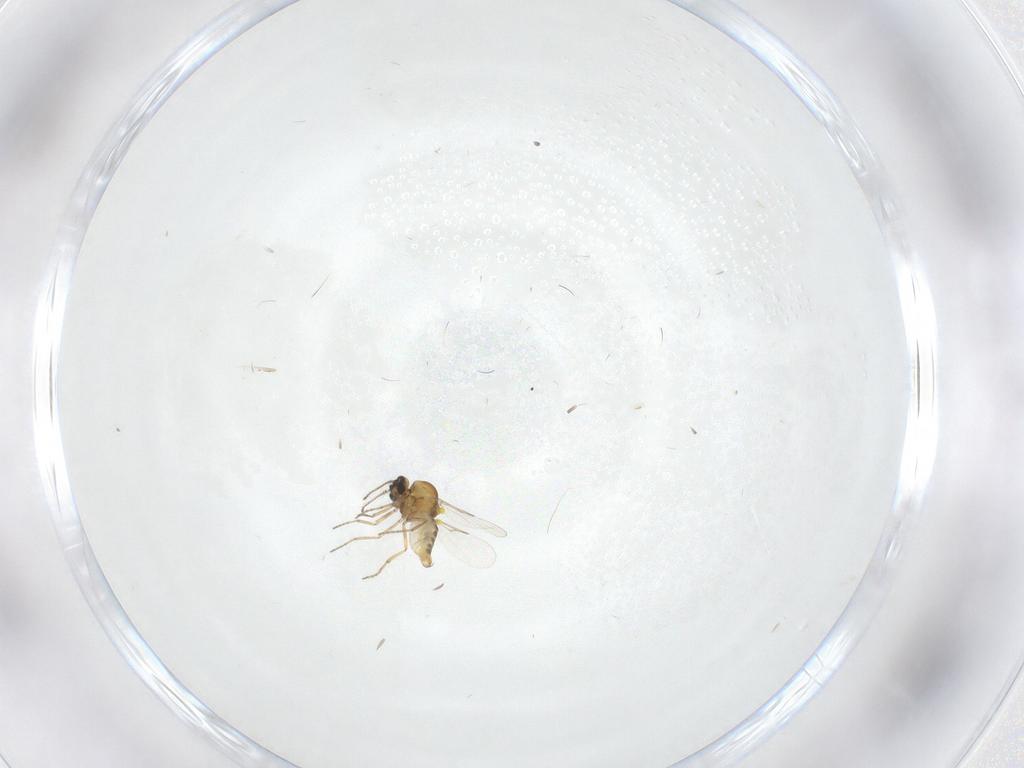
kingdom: Animalia
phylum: Arthropoda
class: Insecta
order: Diptera
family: Ceratopogonidae
